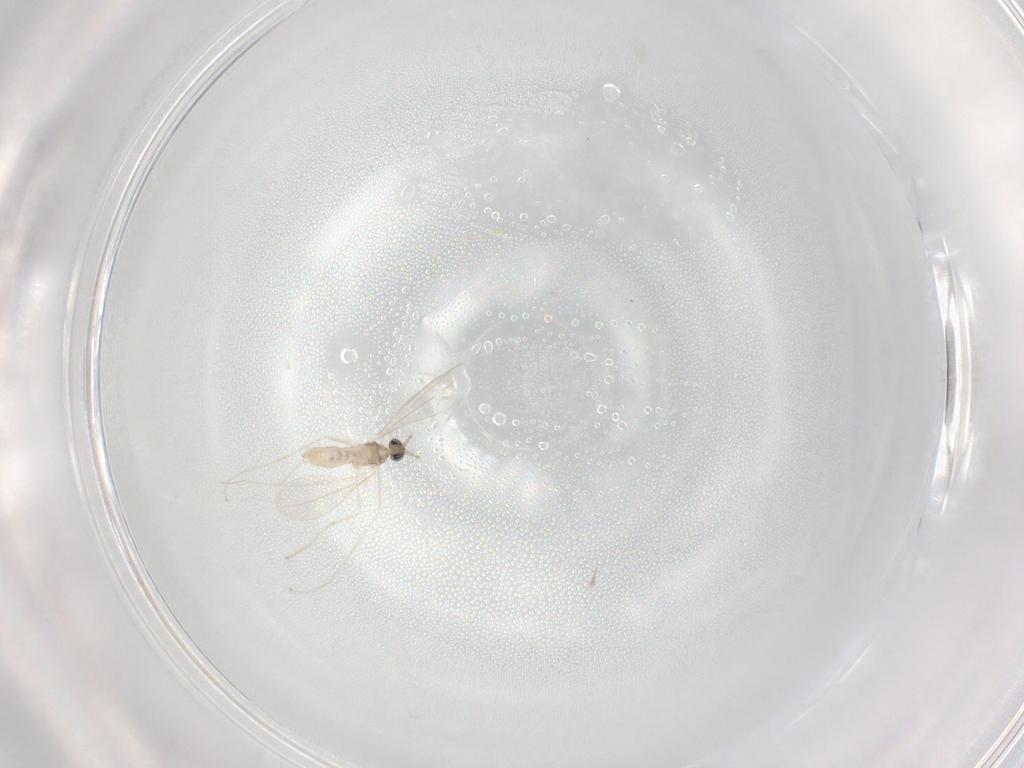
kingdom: Animalia
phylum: Arthropoda
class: Insecta
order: Diptera
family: Cecidomyiidae
